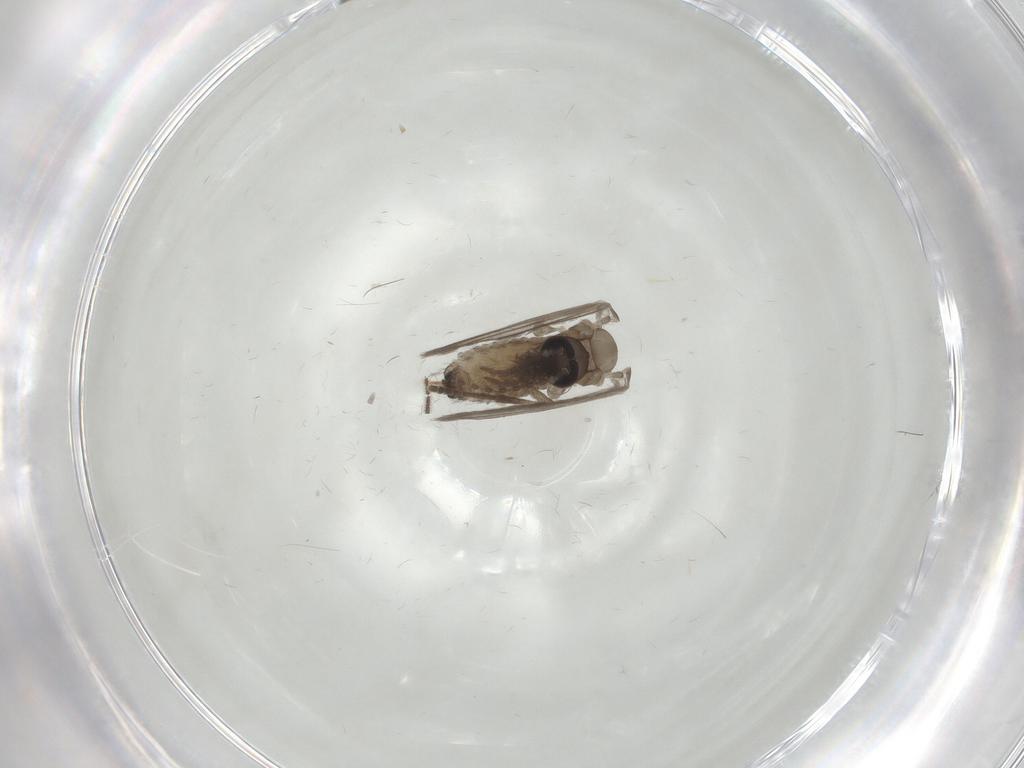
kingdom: Animalia
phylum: Arthropoda
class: Insecta
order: Diptera
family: Psychodidae
